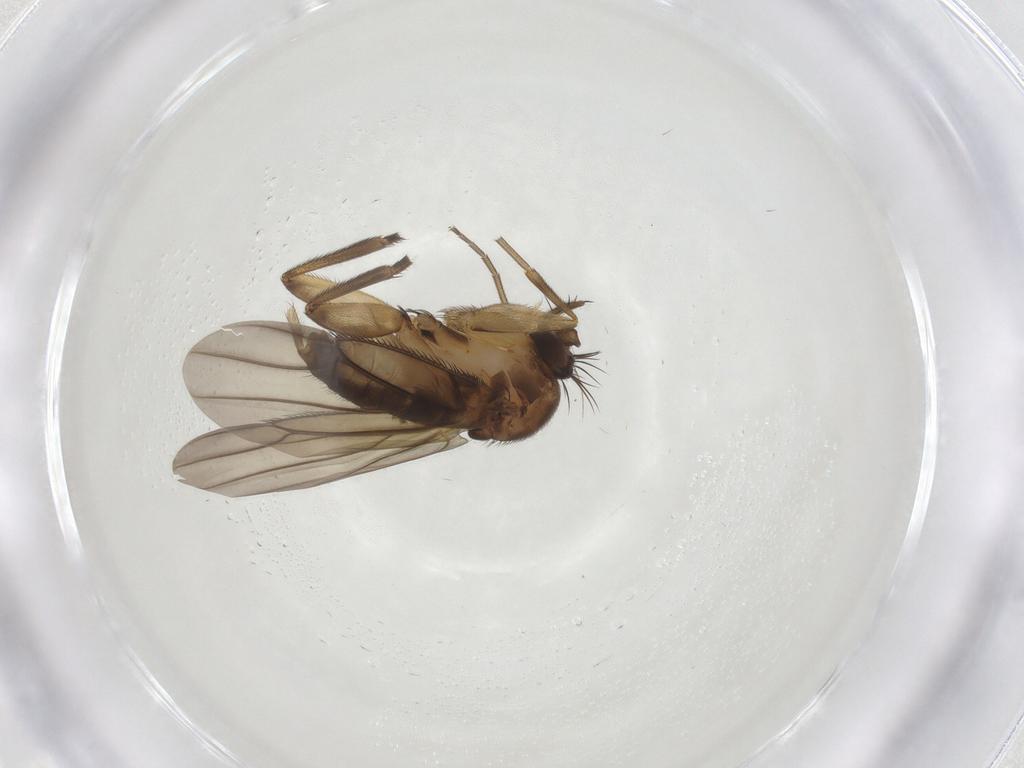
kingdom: Animalia
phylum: Arthropoda
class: Insecta
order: Diptera
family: Phoridae
